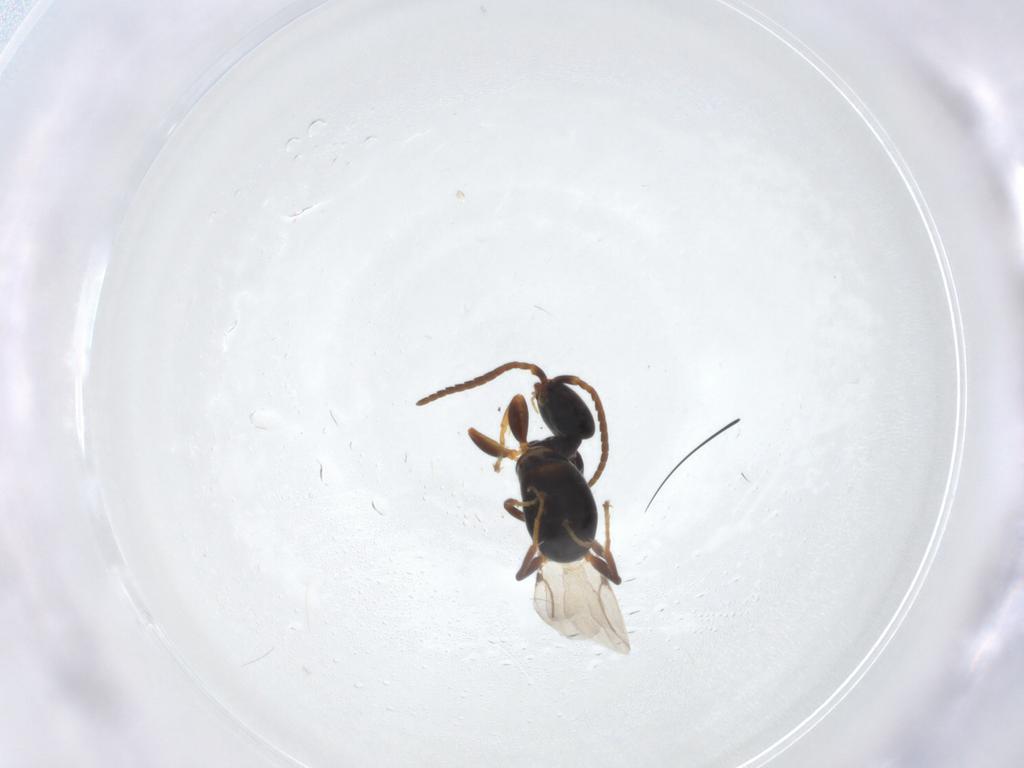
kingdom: Animalia
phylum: Arthropoda
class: Insecta
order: Hymenoptera
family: Bethylidae
